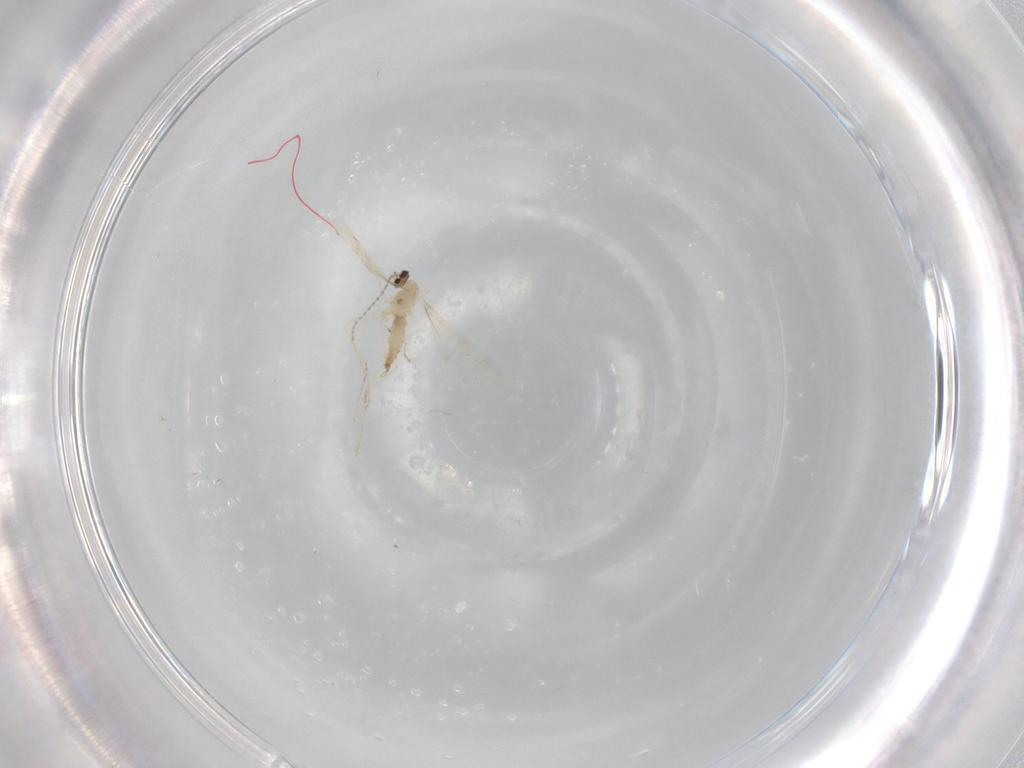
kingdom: Animalia
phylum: Arthropoda
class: Insecta
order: Diptera
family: Cecidomyiidae
